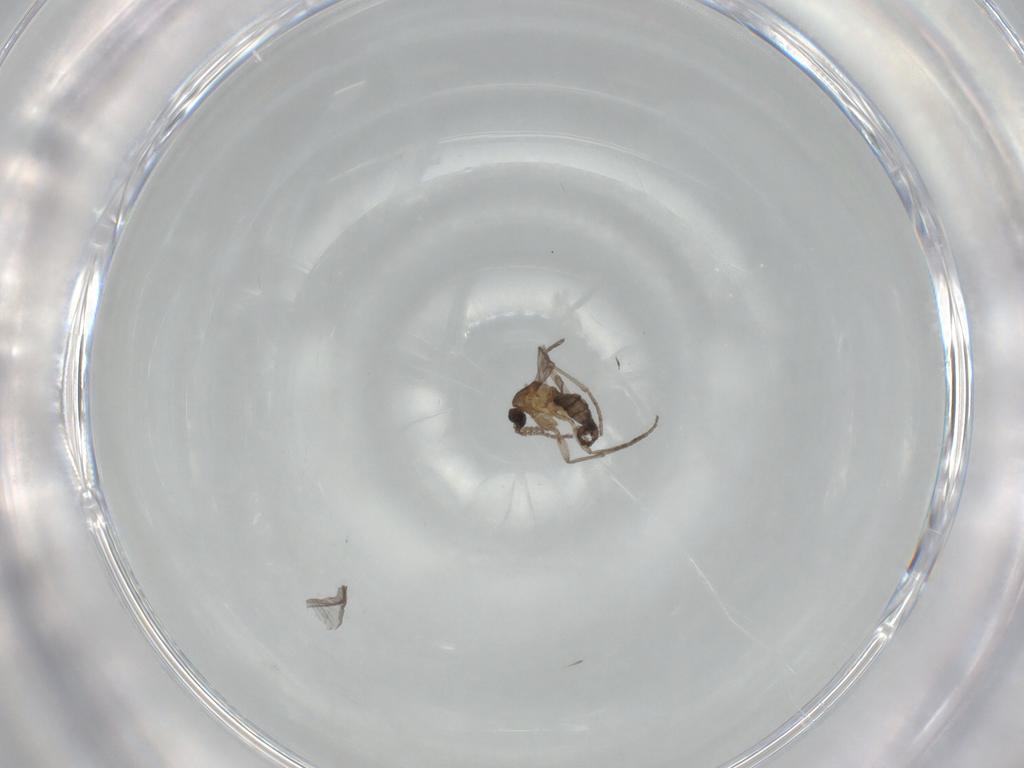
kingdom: Animalia
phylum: Arthropoda
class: Insecta
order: Diptera
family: Sciaridae
